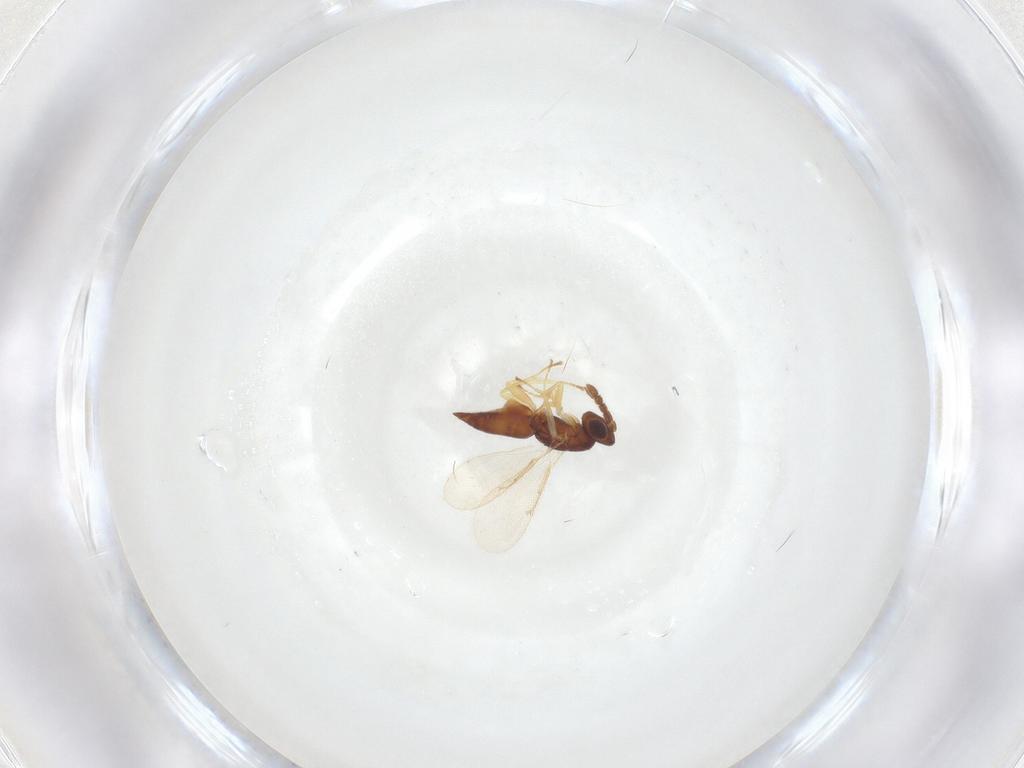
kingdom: Animalia
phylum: Arthropoda
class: Insecta
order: Hymenoptera
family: Eulophidae
